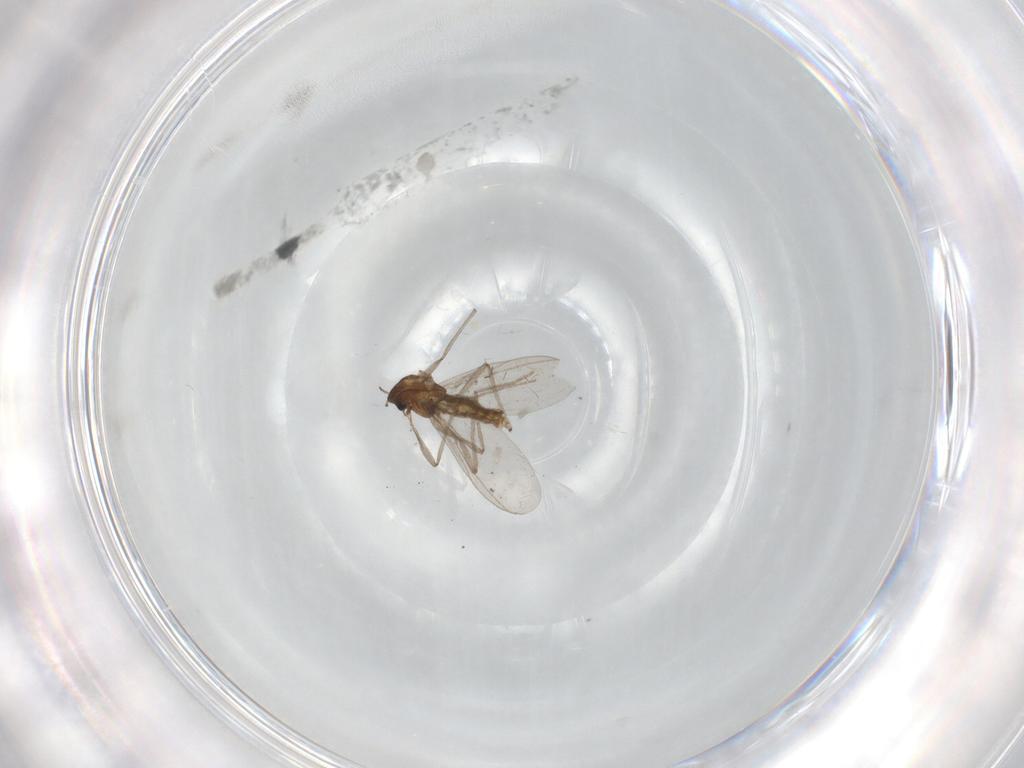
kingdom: Animalia
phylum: Arthropoda
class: Insecta
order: Diptera
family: Chironomidae
